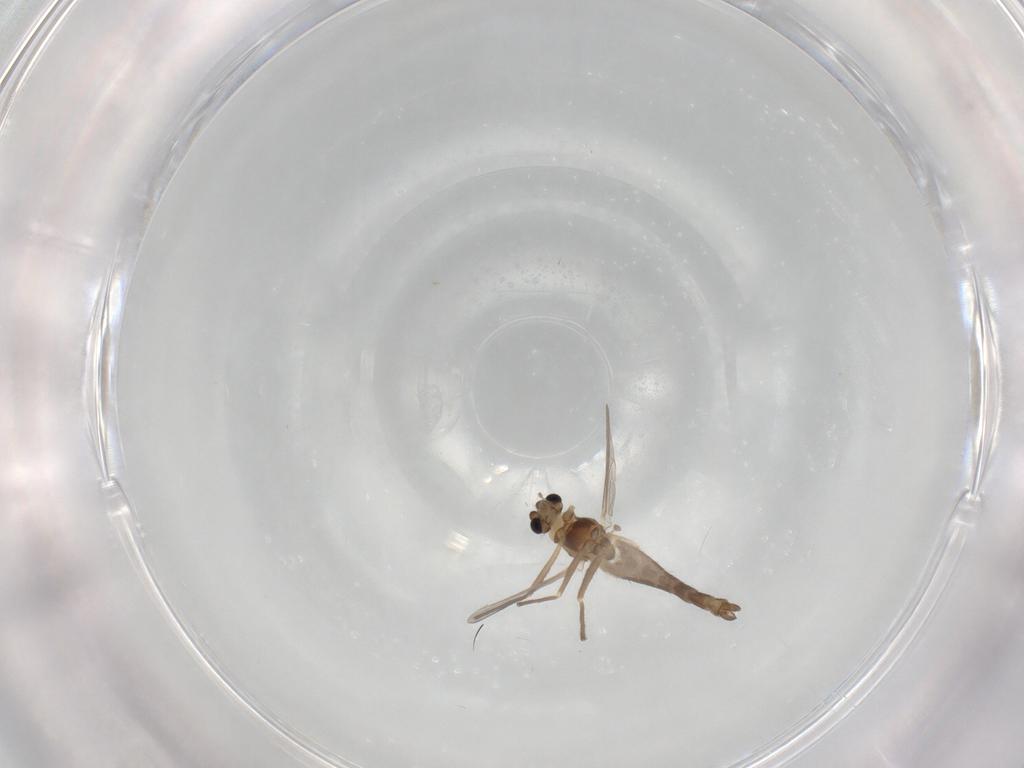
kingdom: Animalia
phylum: Arthropoda
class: Insecta
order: Diptera
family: Chironomidae
